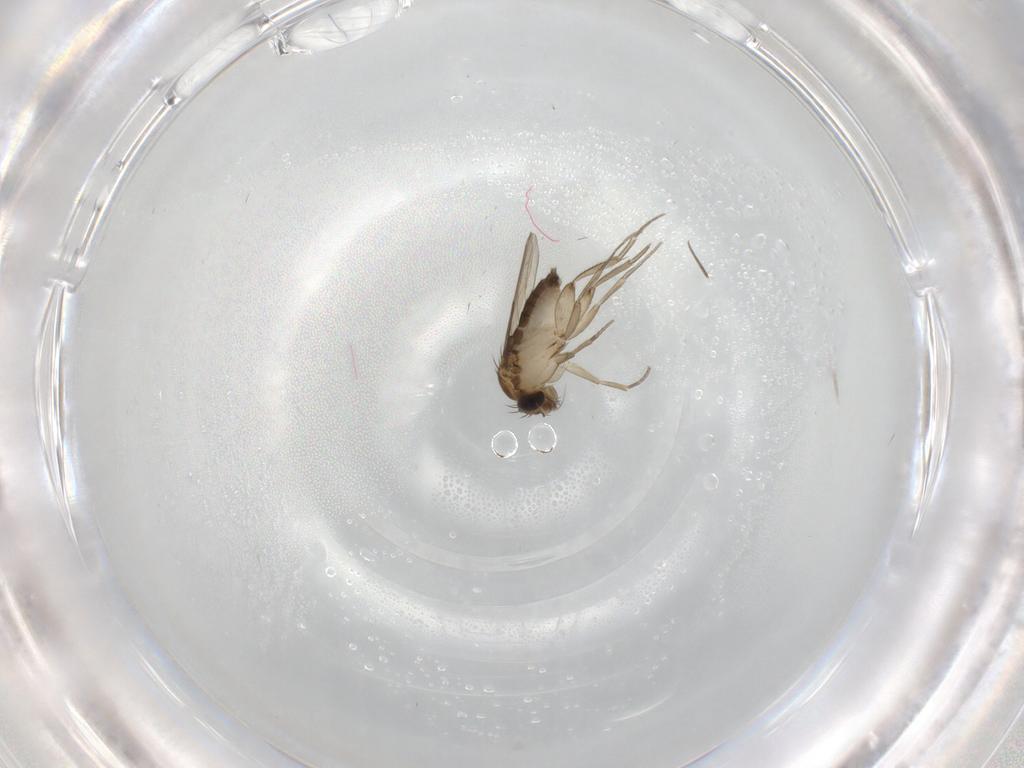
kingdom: Animalia
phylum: Arthropoda
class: Insecta
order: Diptera
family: Phoridae
